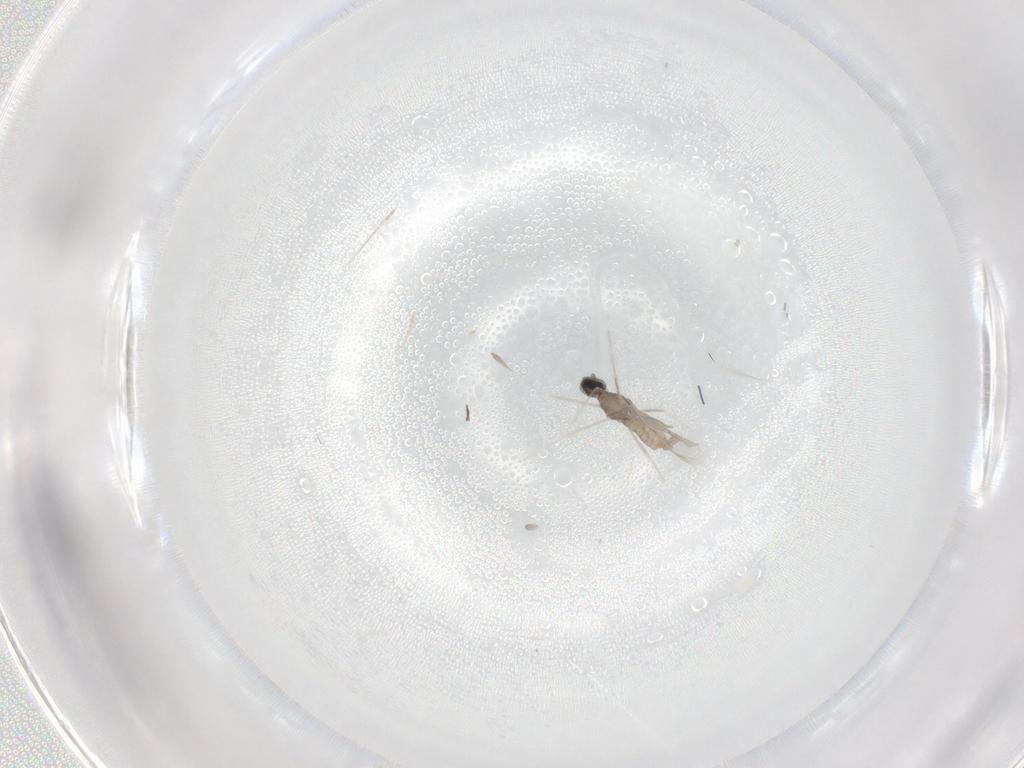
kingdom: Animalia
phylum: Arthropoda
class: Insecta
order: Diptera
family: Cecidomyiidae
